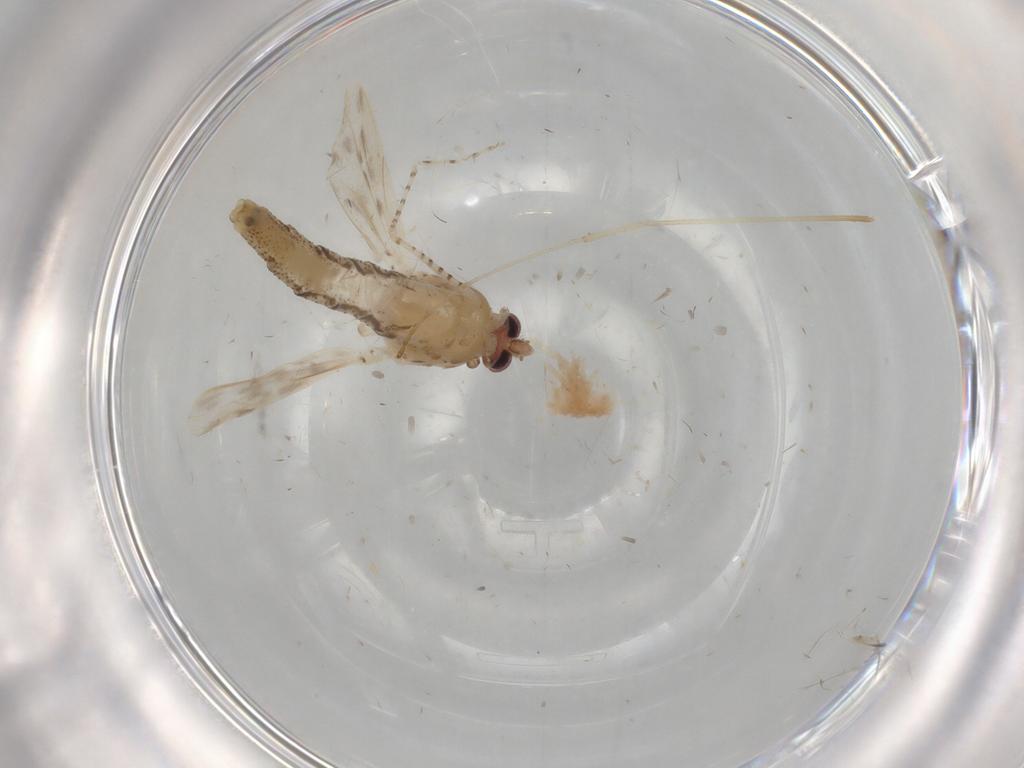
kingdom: Animalia
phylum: Arthropoda
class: Insecta
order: Diptera
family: Chaoboridae
